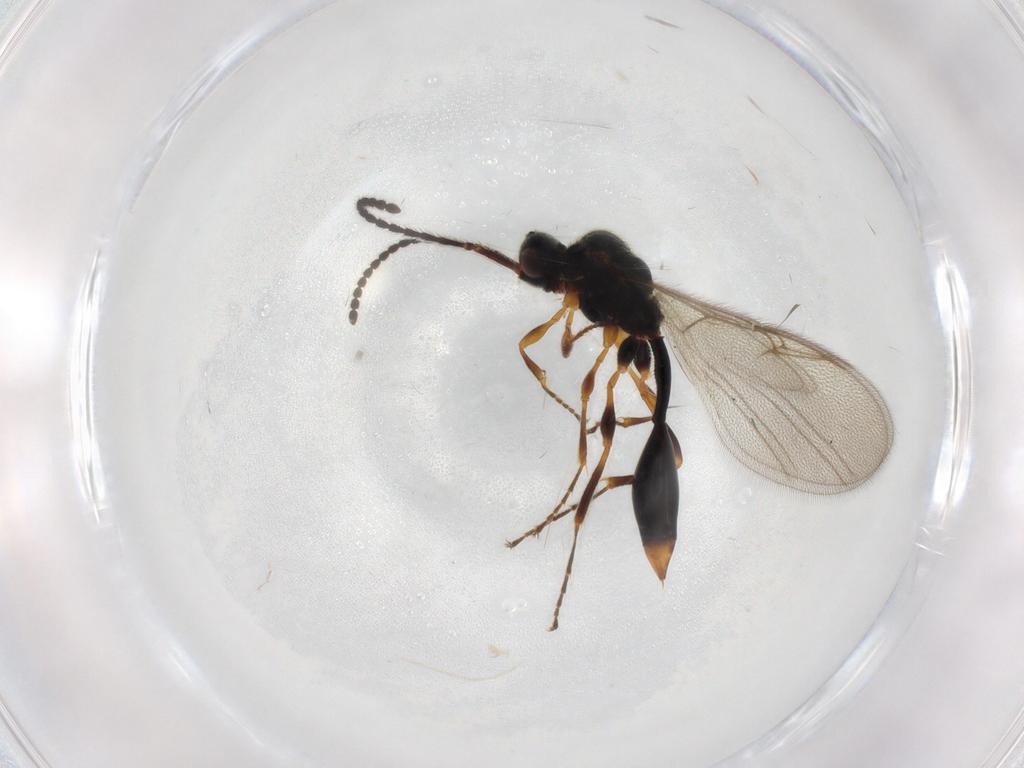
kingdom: Animalia
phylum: Arthropoda
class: Insecta
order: Hymenoptera
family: Diapriidae
